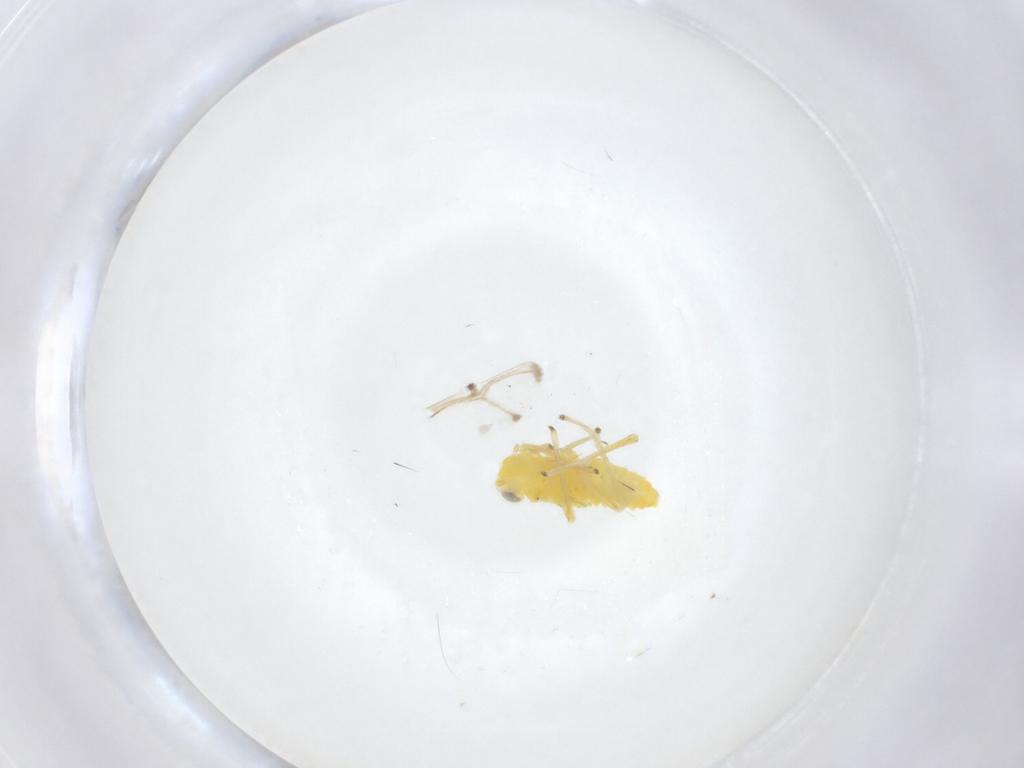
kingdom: Animalia
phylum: Arthropoda
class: Insecta
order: Hemiptera
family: Cicadellidae
